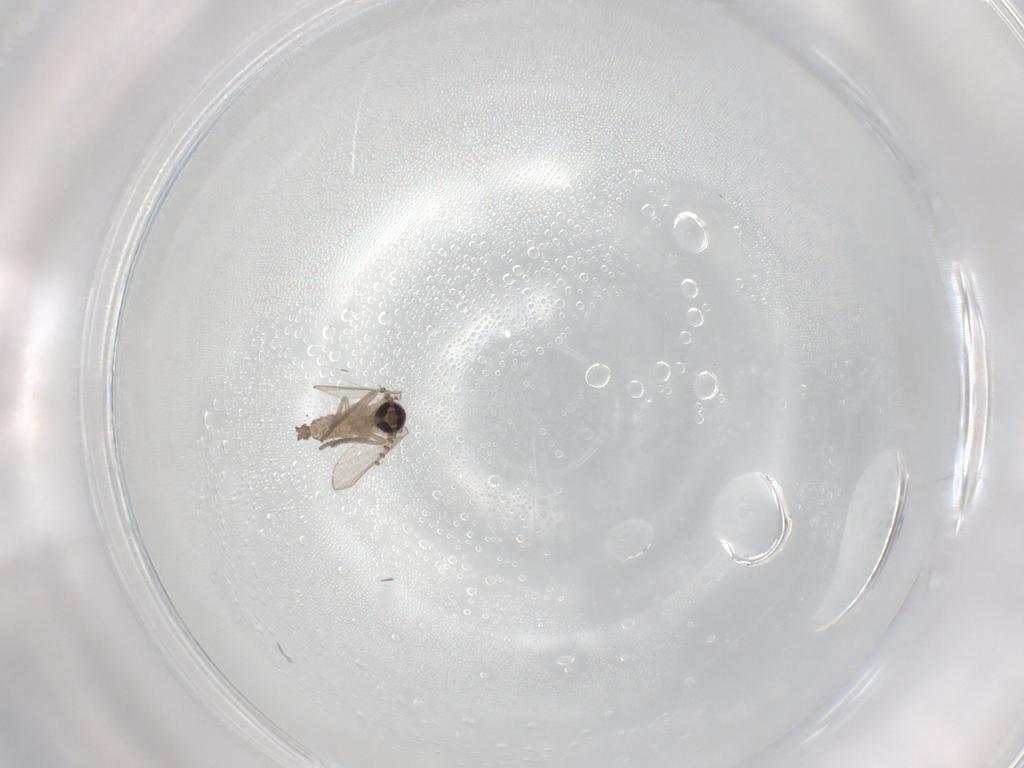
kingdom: Animalia
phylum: Arthropoda
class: Insecta
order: Diptera
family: Psychodidae
